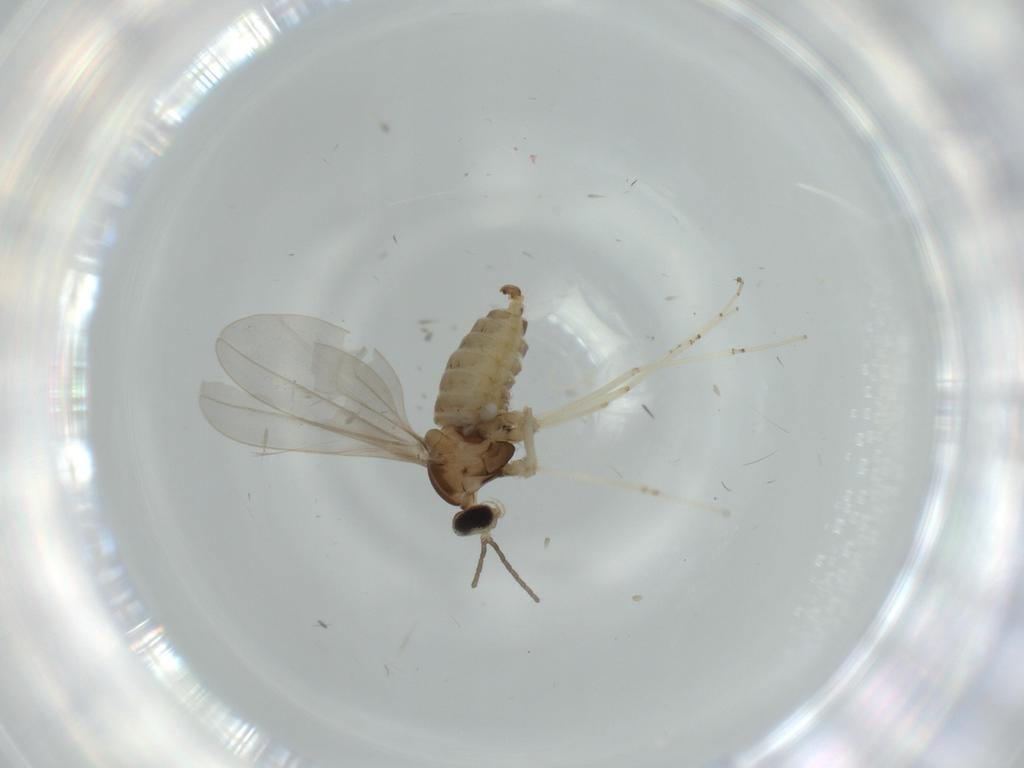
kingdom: Animalia
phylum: Arthropoda
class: Insecta
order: Diptera
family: Cecidomyiidae
